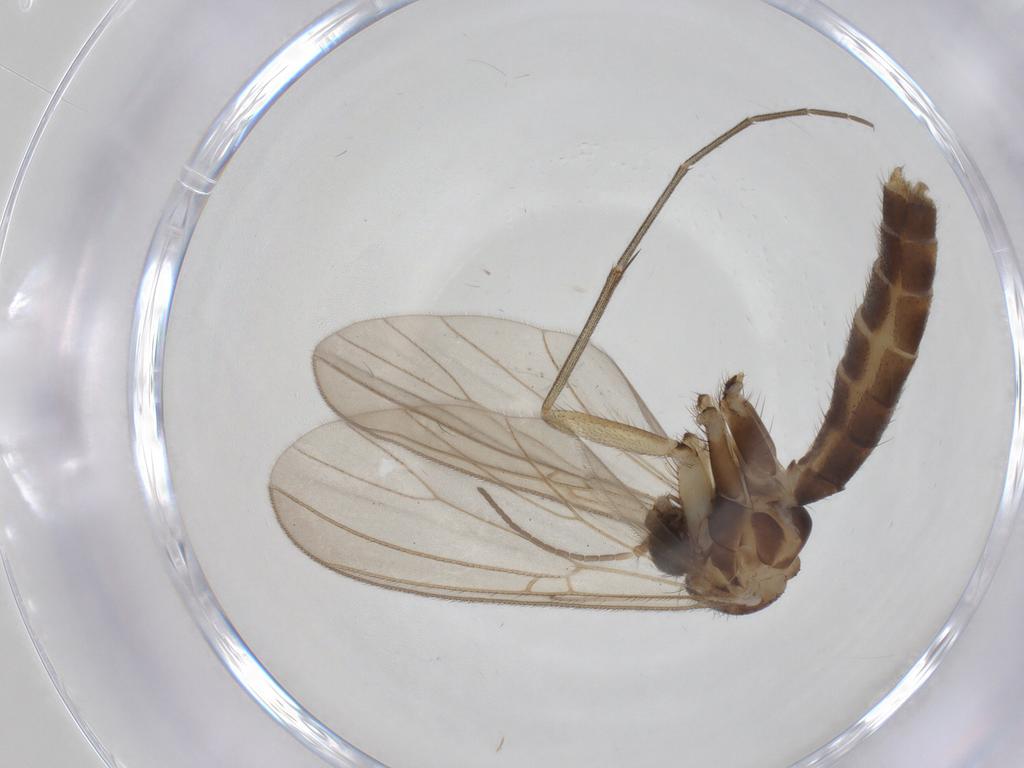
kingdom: Animalia
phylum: Arthropoda
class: Insecta
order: Diptera
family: Mycetophilidae
